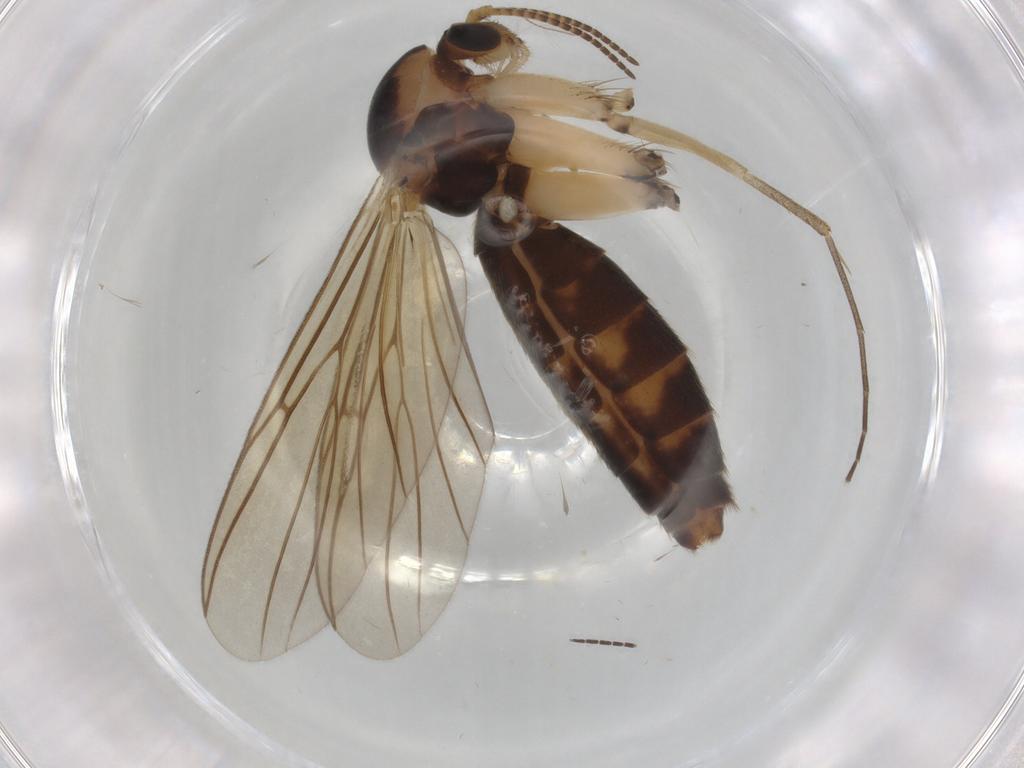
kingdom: Animalia
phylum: Arthropoda
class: Insecta
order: Diptera
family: Mycetophilidae
